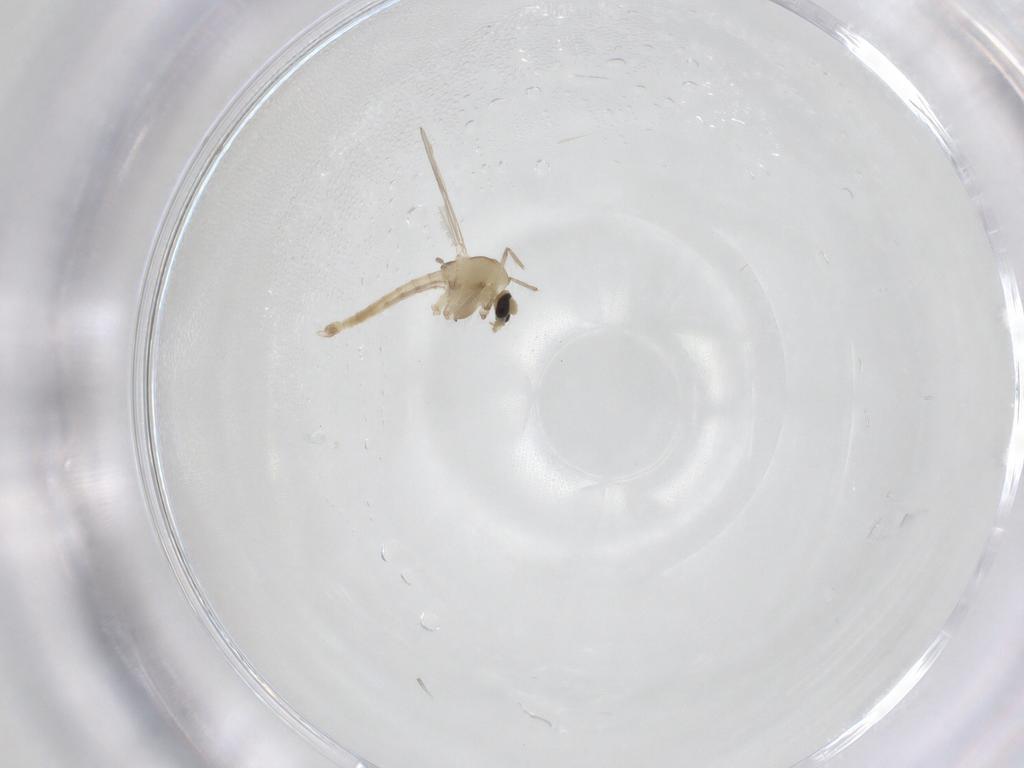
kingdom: Animalia
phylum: Arthropoda
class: Insecta
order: Diptera
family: Chironomidae
